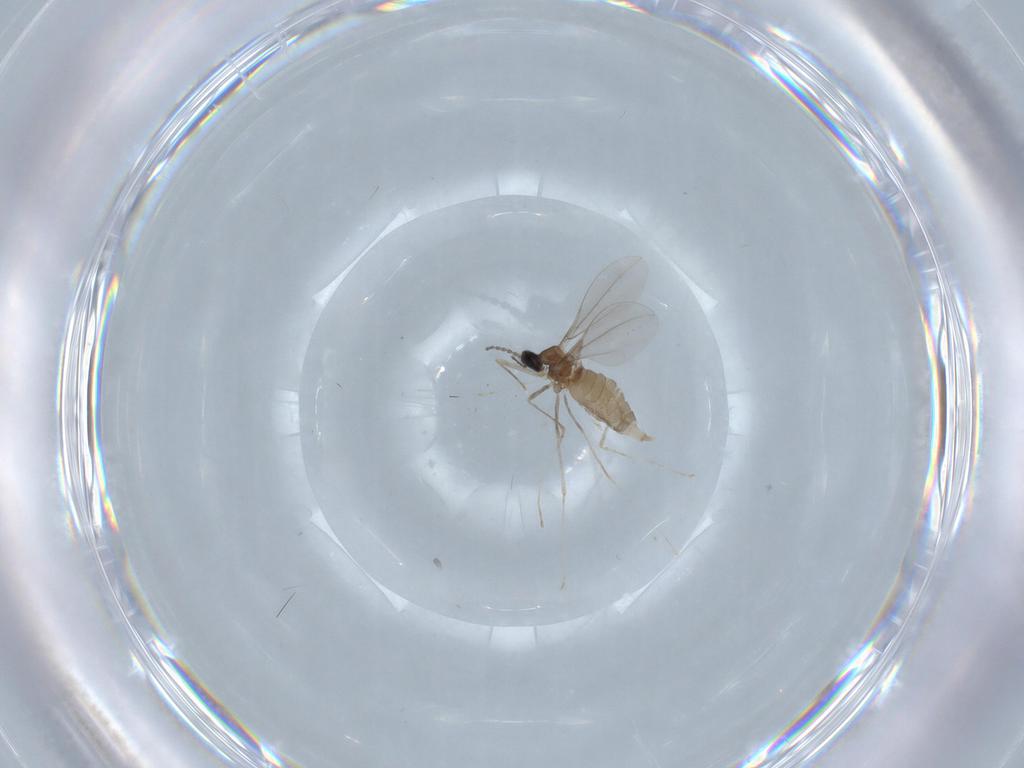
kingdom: Animalia
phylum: Arthropoda
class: Insecta
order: Diptera
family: Cecidomyiidae
